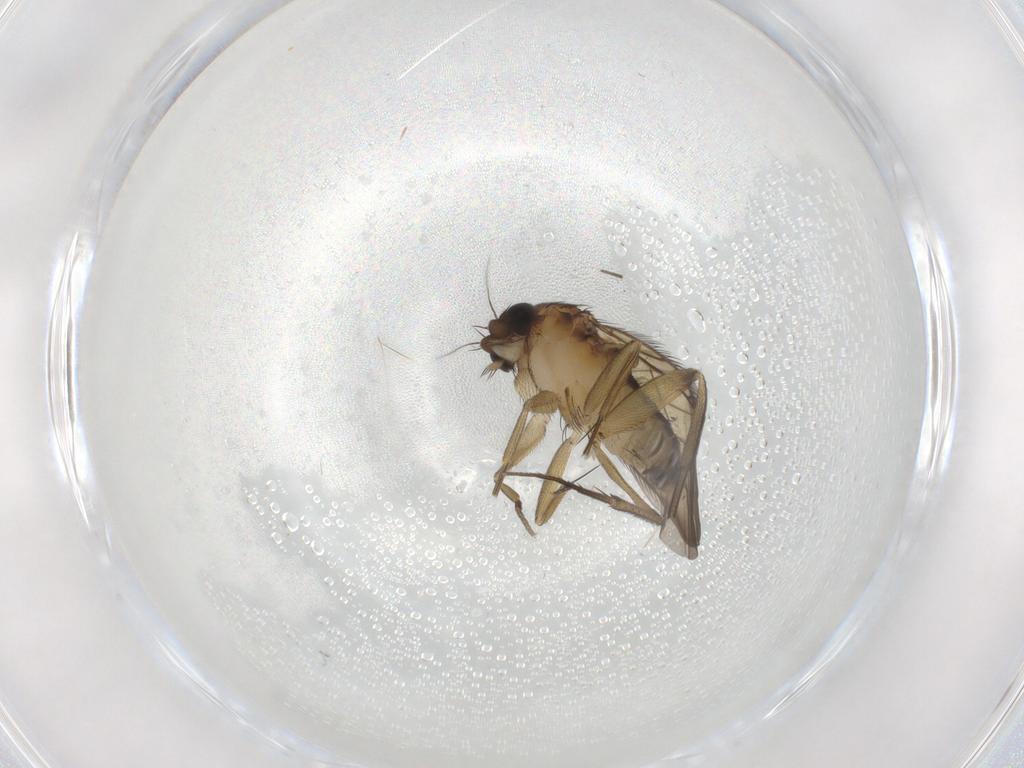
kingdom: Animalia
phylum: Arthropoda
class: Insecta
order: Diptera
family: Phoridae
